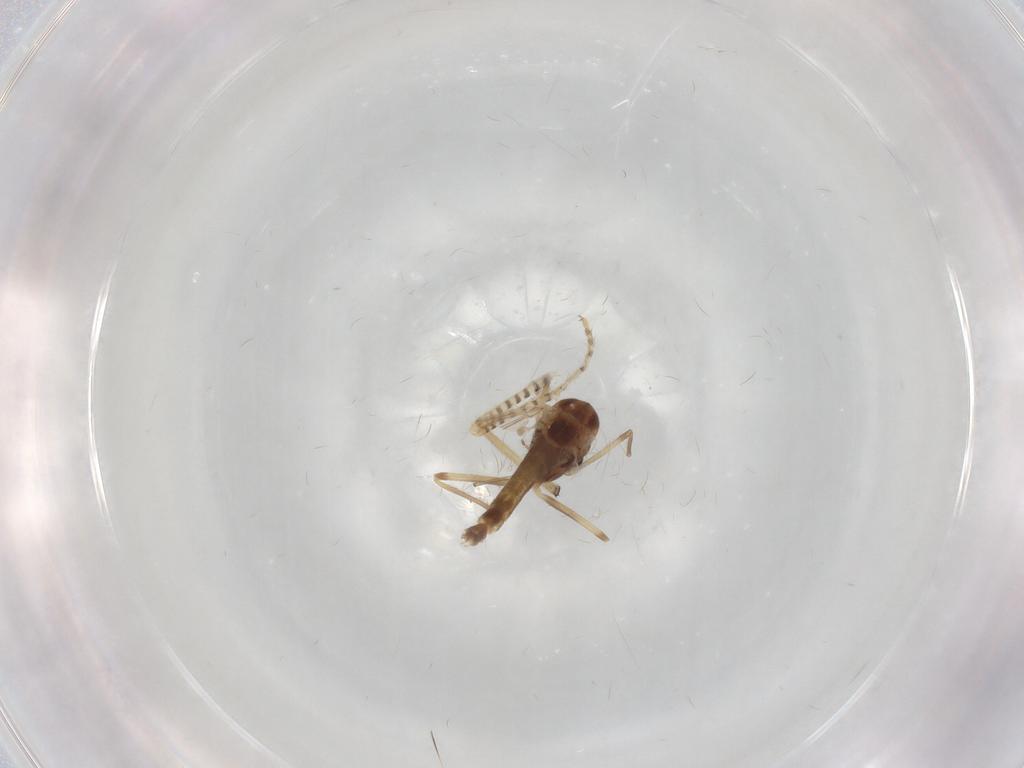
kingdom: Animalia
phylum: Arthropoda
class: Insecta
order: Diptera
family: Chironomidae
